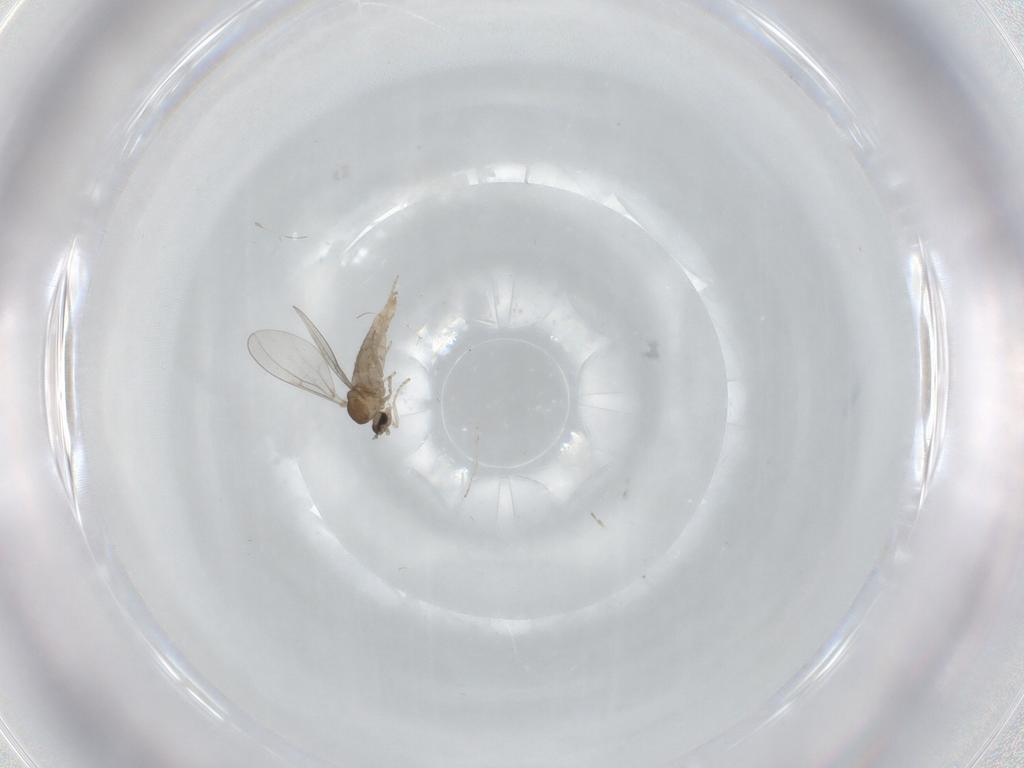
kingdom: Animalia
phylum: Arthropoda
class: Insecta
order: Diptera
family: Cecidomyiidae
